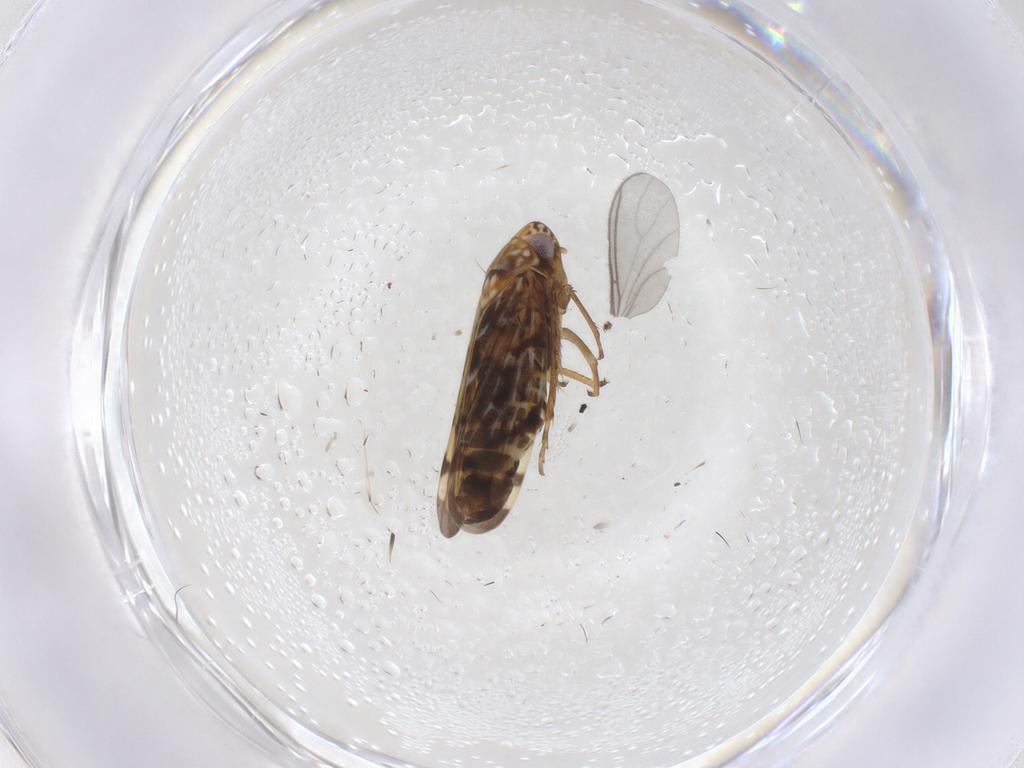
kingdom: Animalia
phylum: Arthropoda
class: Insecta
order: Hemiptera
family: Cicadellidae
